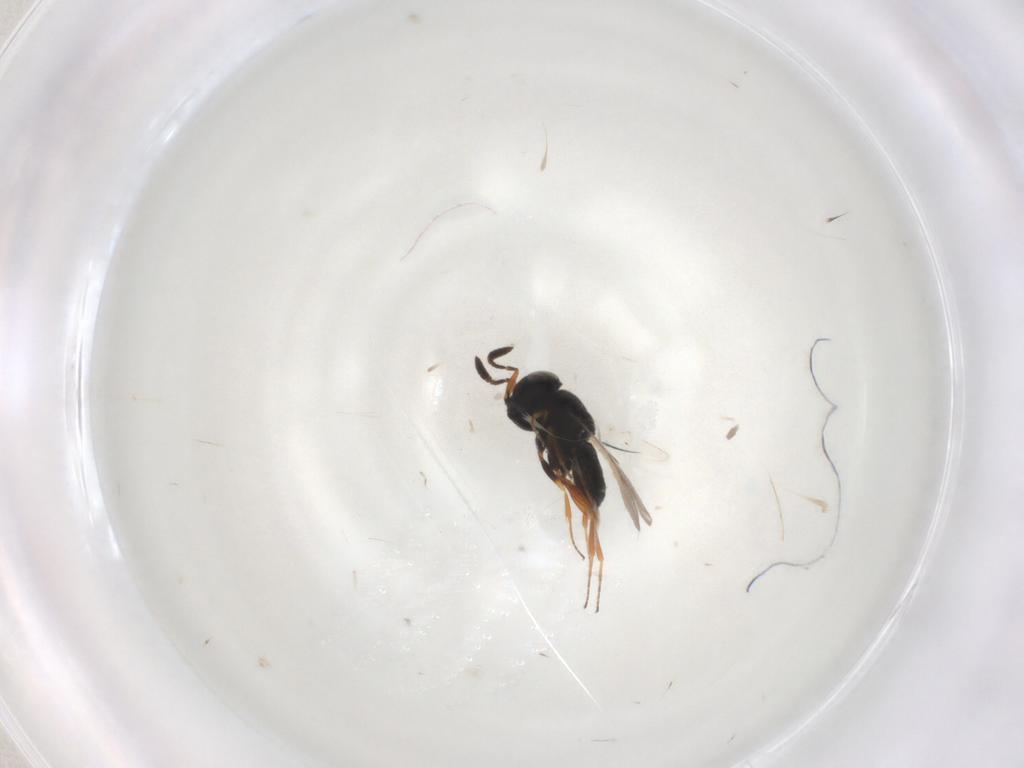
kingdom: Animalia
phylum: Arthropoda
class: Insecta
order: Hymenoptera
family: Scelionidae
